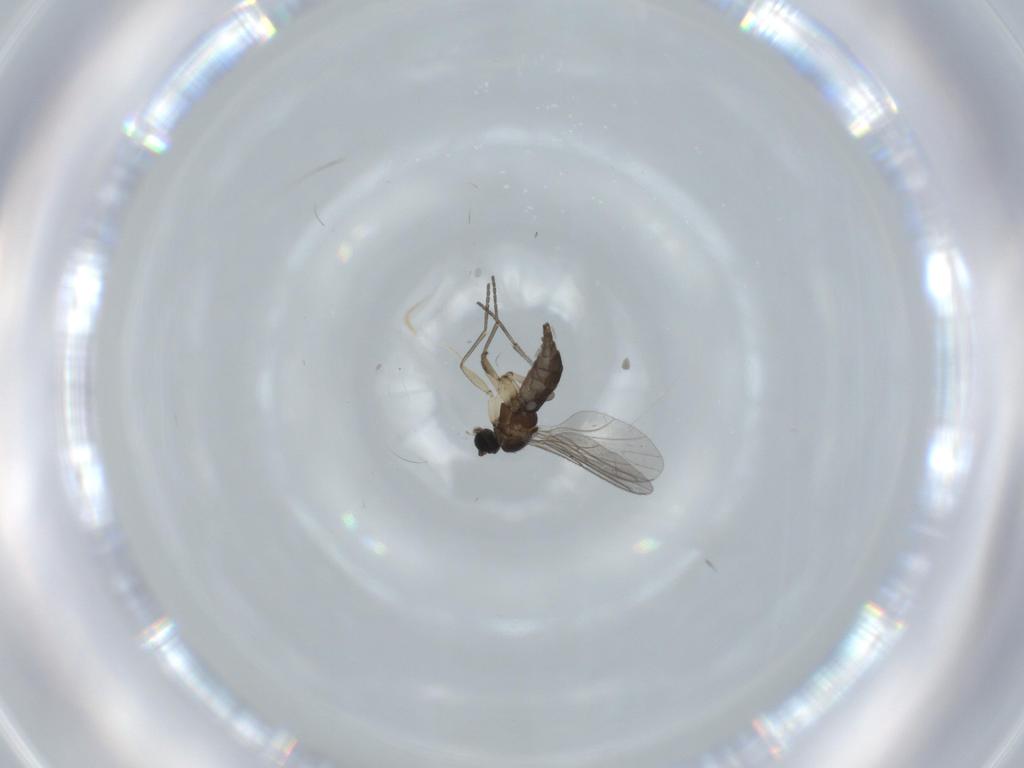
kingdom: Animalia
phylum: Arthropoda
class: Insecta
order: Diptera
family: Sciaridae
